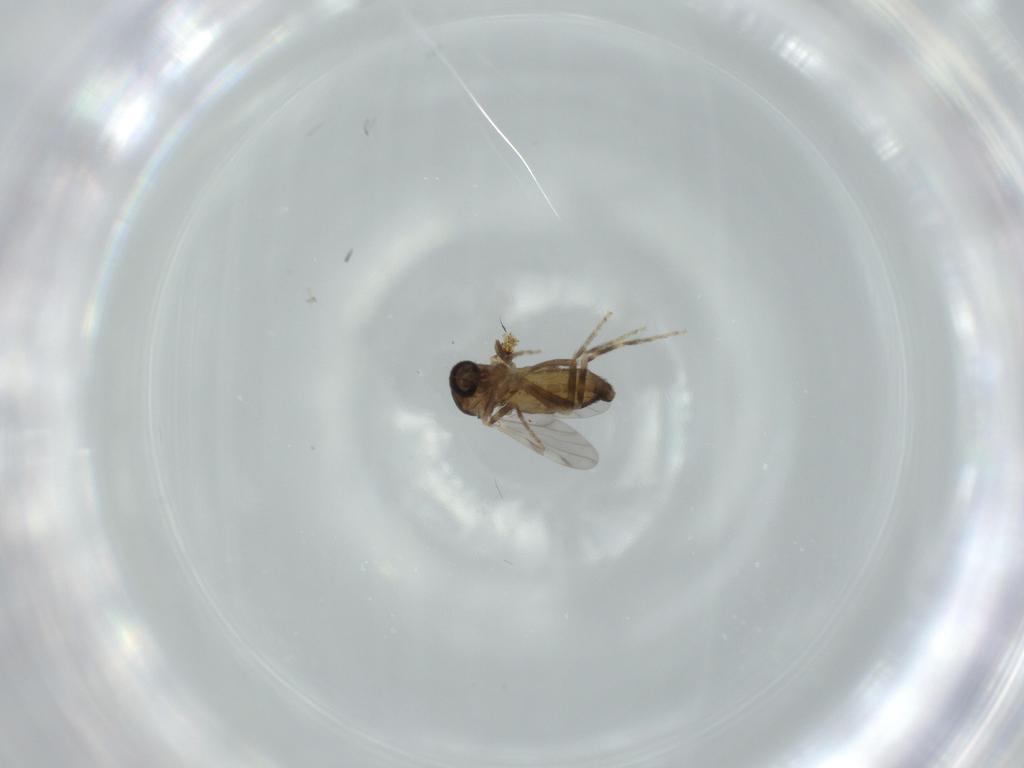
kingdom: Animalia
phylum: Arthropoda
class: Insecta
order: Diptera
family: Ceratopogonidae
